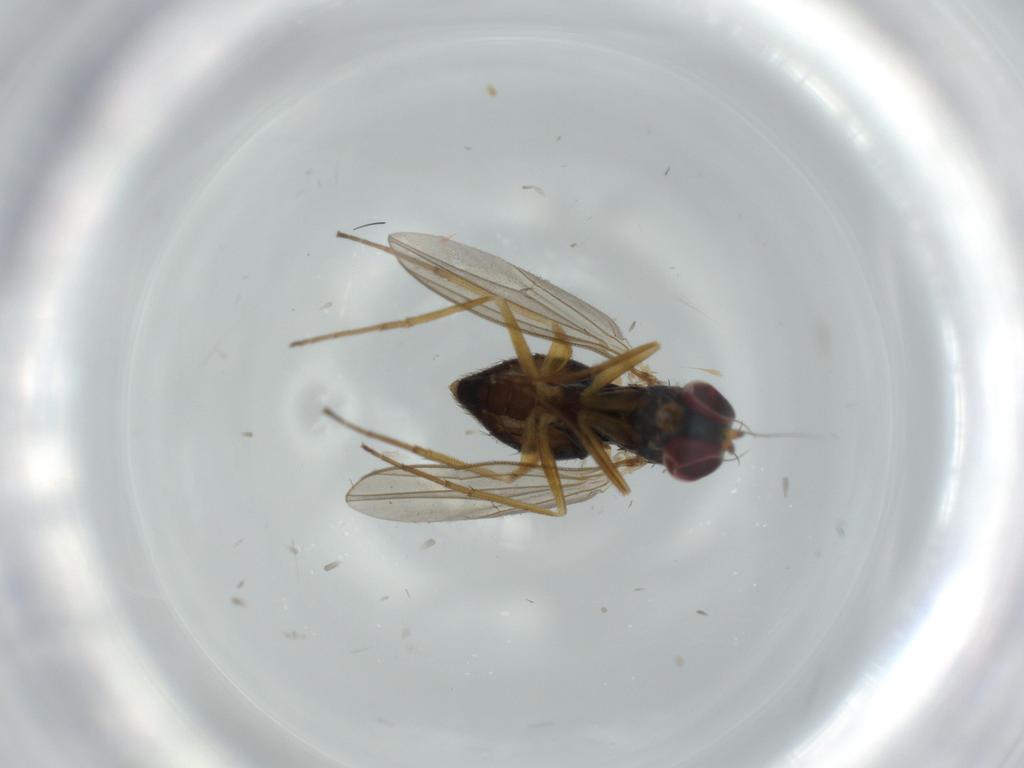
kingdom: Animalia
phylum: Arthropoda
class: Insecta
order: Diptera
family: Dolichopodidae
